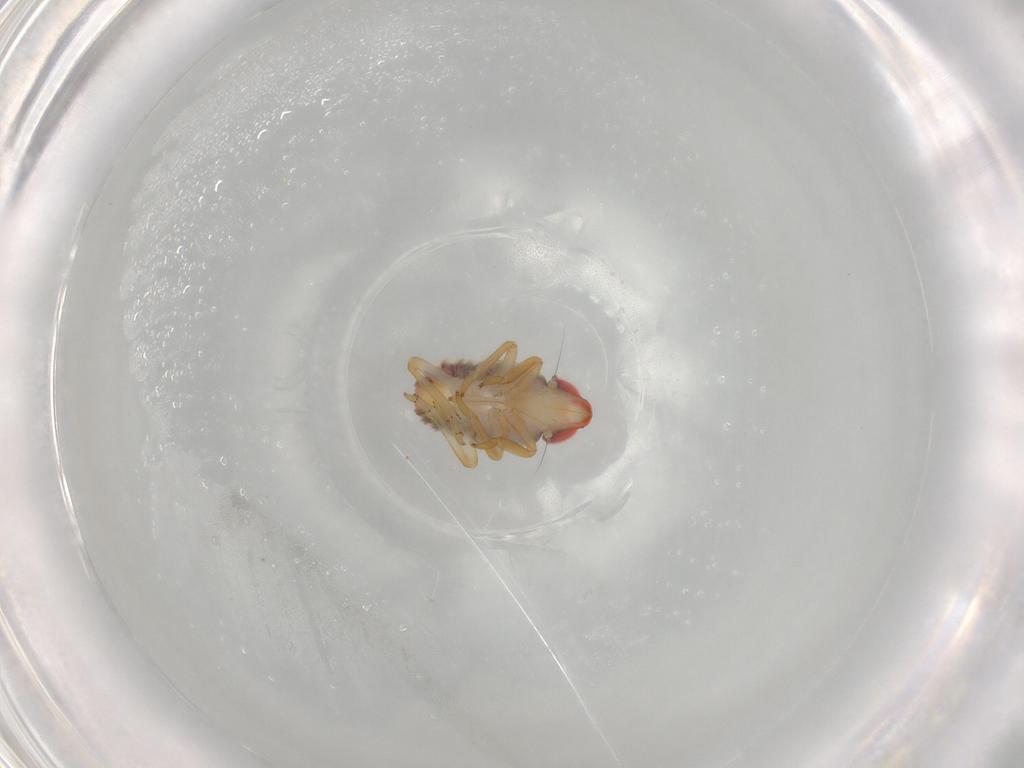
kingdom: Animalia
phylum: Arthropoda
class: Insecta
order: Hemiptera
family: Issidae
